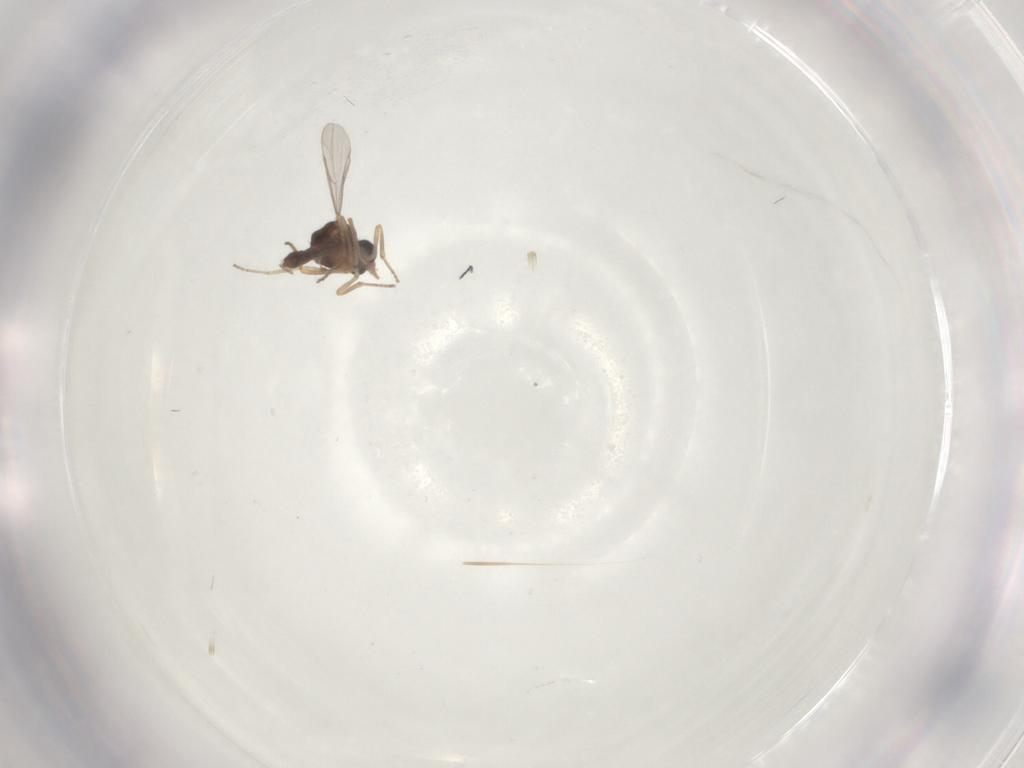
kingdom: Animalia
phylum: Arthropoda
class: Insecta
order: Diptera
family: Ceratopogonidae
